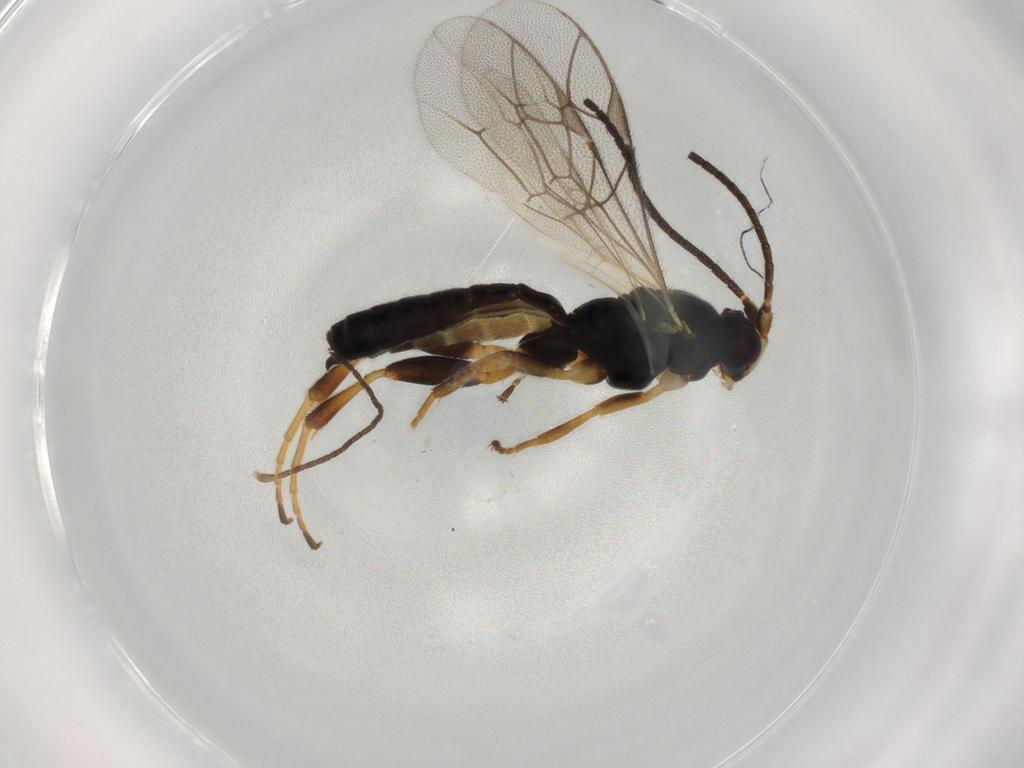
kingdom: Animalia
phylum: Arthropoda
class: Insecta
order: Hymenoptera
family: Ichneumonidae
